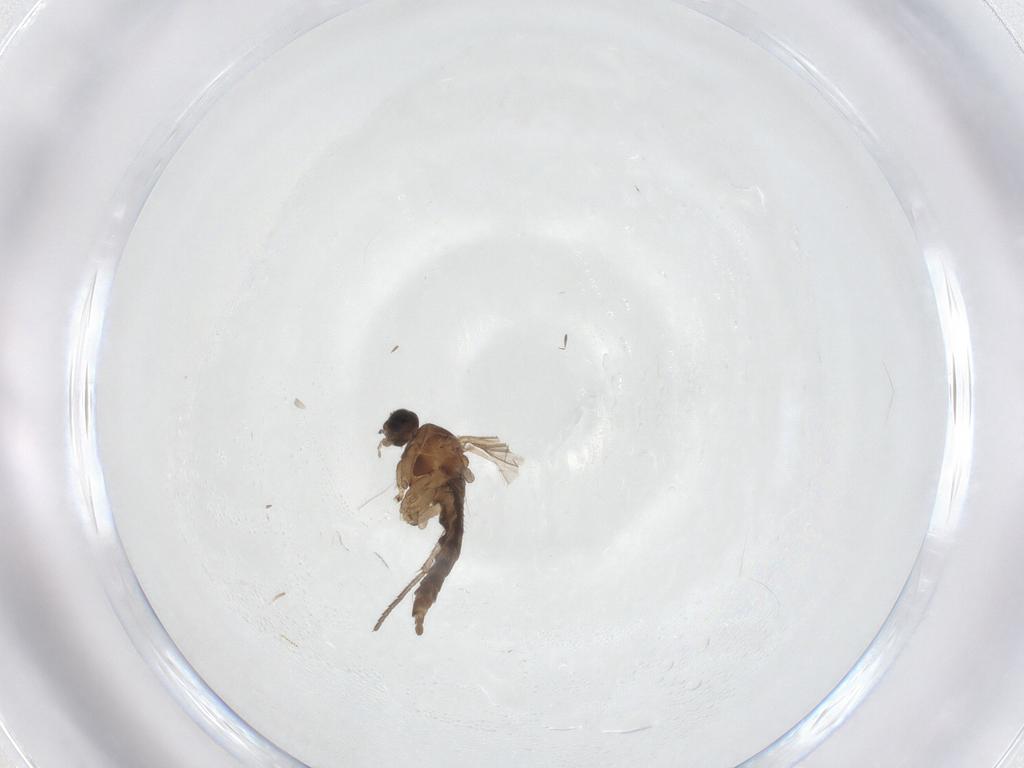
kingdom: Animalia
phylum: Arthropoda
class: Insecta
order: Diptera
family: Sciaridae
